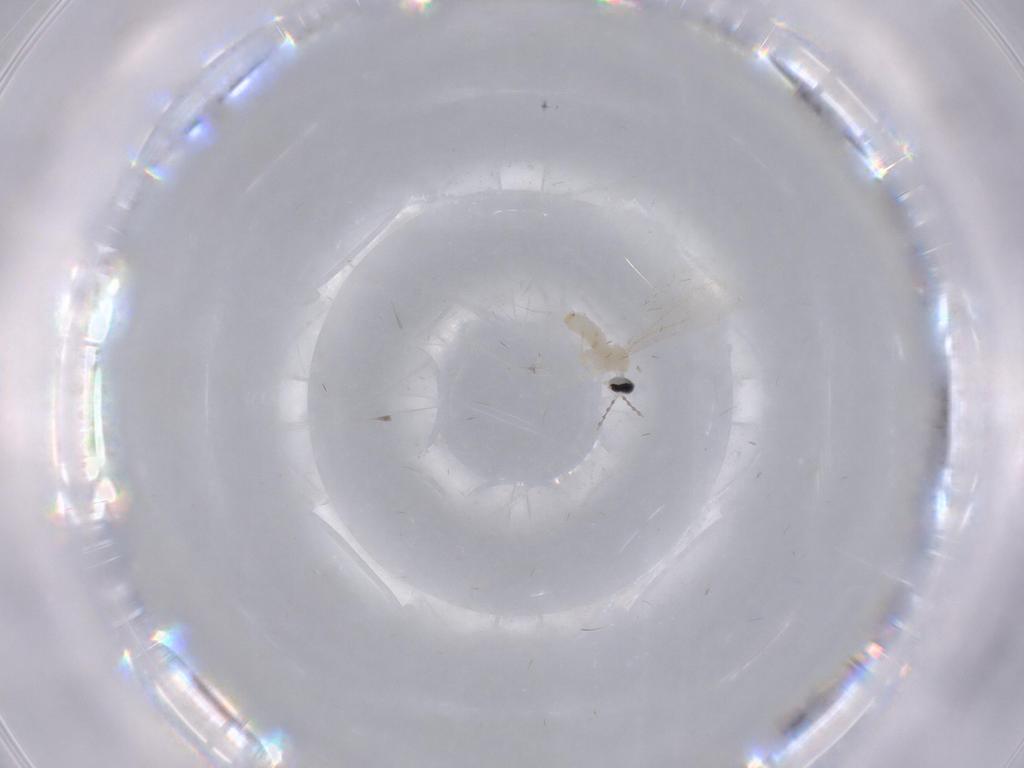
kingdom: Animalia
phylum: Arthropoda
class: Insecta
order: Diptera
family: Cecidomyiidae
